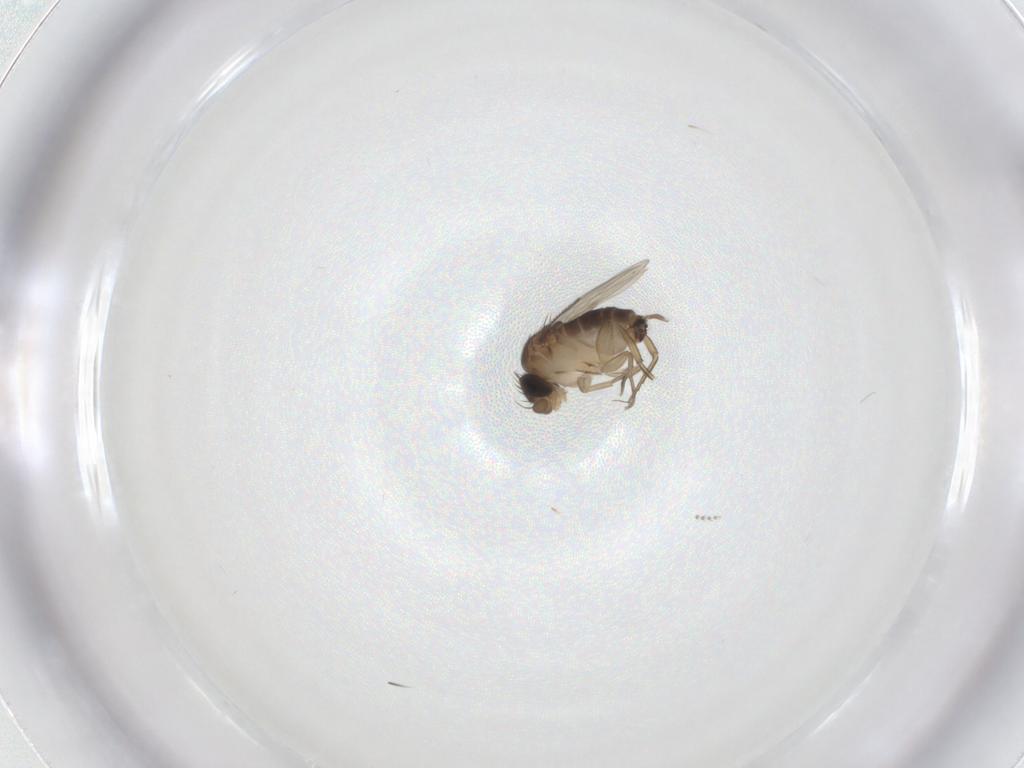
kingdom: Animalia
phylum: Arthropoda
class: Insecta
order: Diptera
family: Psychodidae
